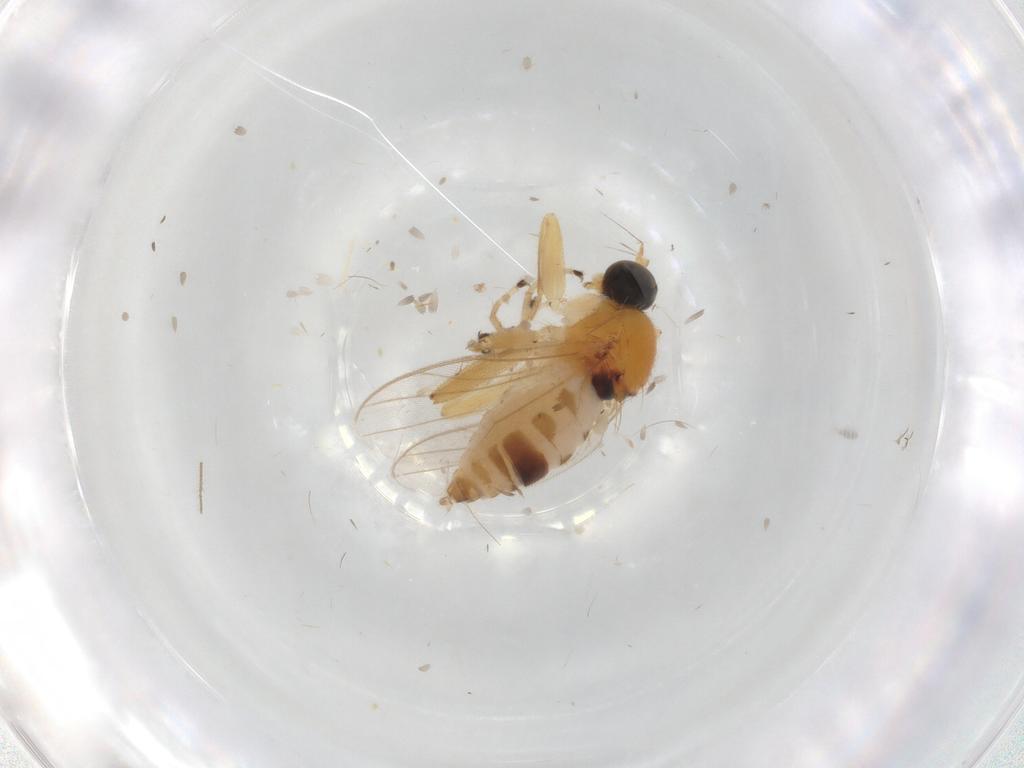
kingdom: Animalia
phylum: Arthropoda
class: Insecta
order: Diptera
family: Hybotidae
